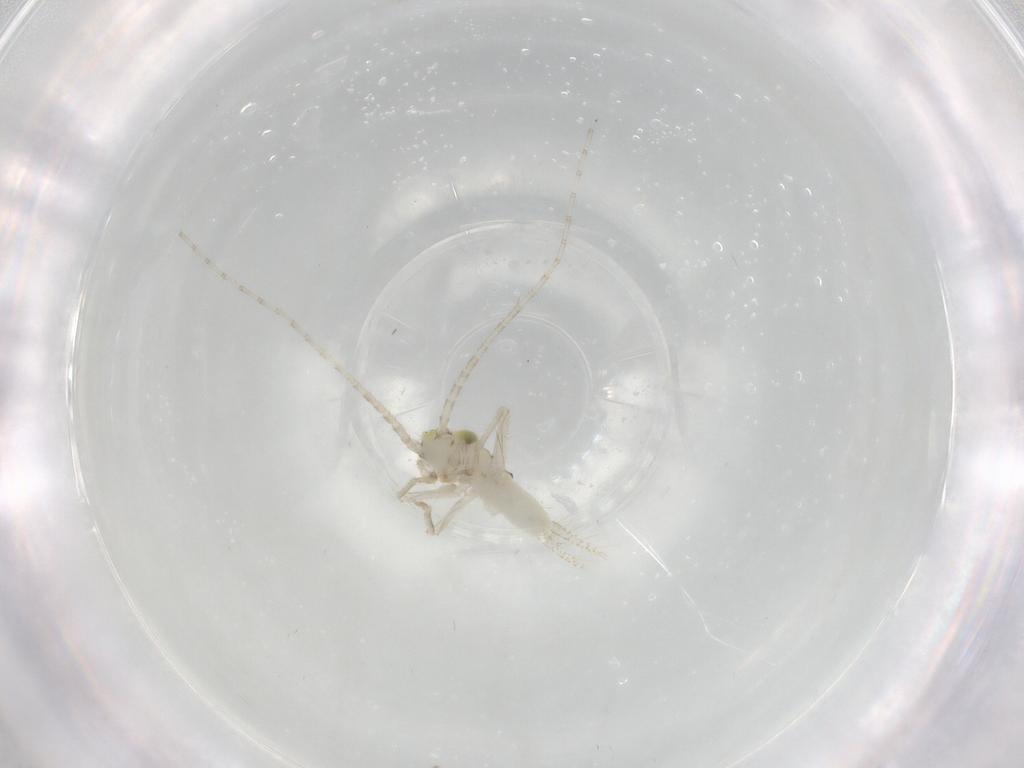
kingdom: Animalia
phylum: Arthropoda
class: Insecta
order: Orthoptera
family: Trigonidiidae
